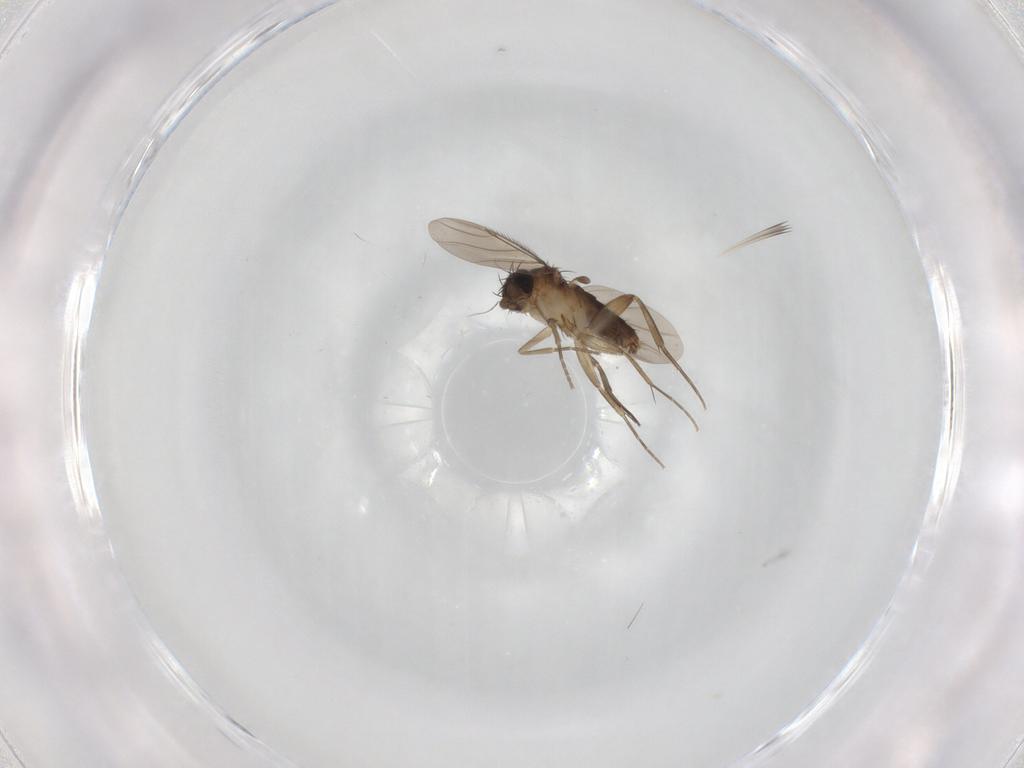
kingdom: Animalia
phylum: Arthropoda
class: Insecta
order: Diptera
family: Phoridae
